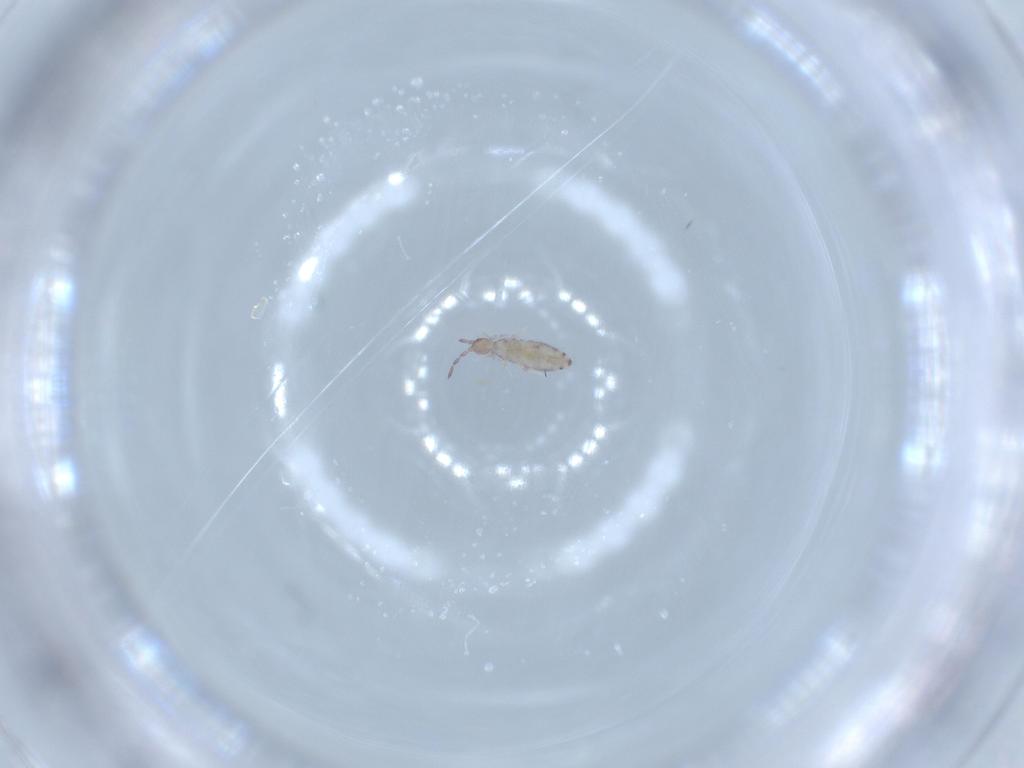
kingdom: Animalia
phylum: Arthropoda
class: Collembola
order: Entomobryomorpha
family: Entomobryidae
